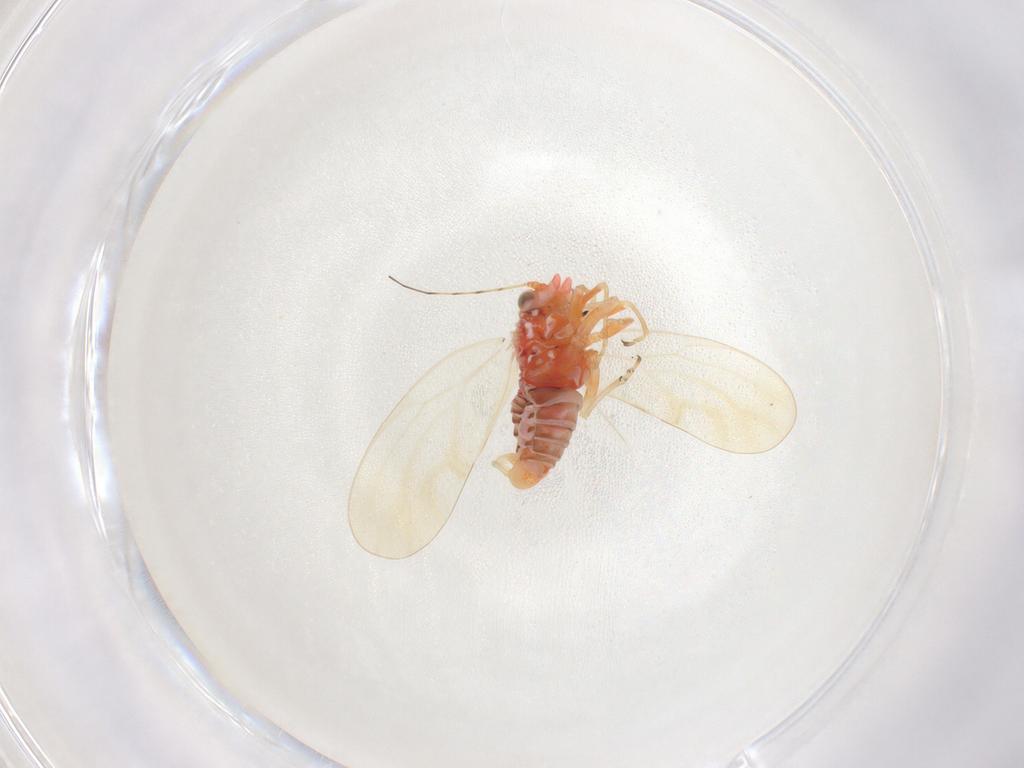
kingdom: Animalia
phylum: Arthropoda
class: Insecta
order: Hemiptera
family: Psyllidae
